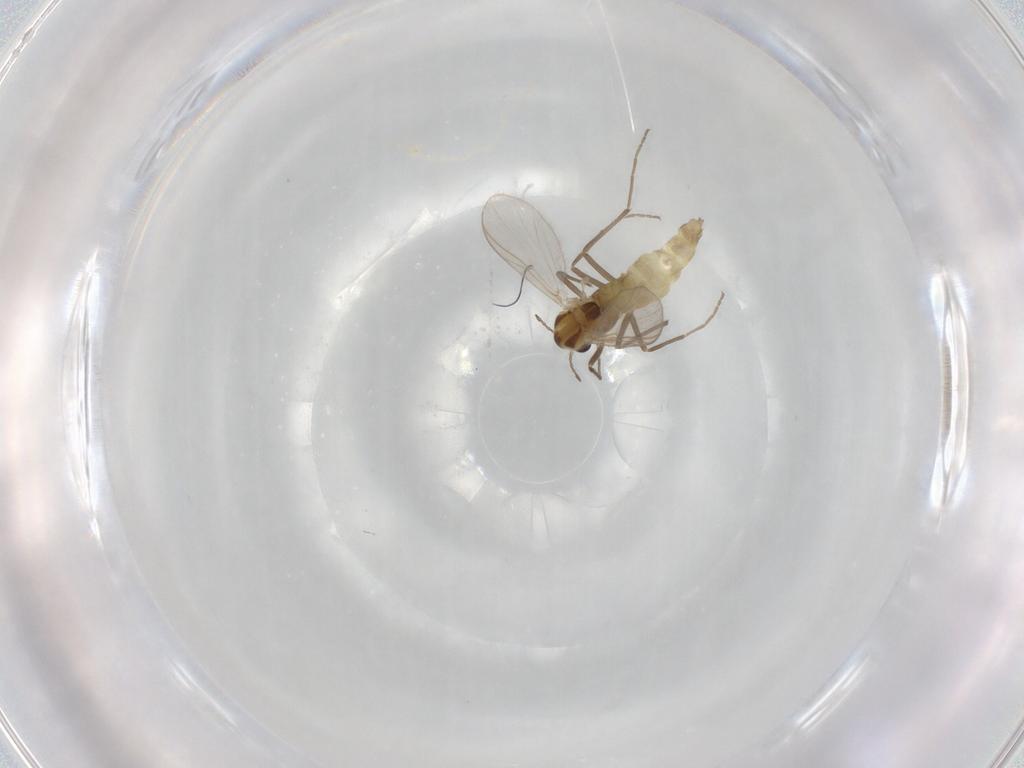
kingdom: Animalia
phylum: Arthropoda
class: Insecta
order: Diptera
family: Chironomidae
